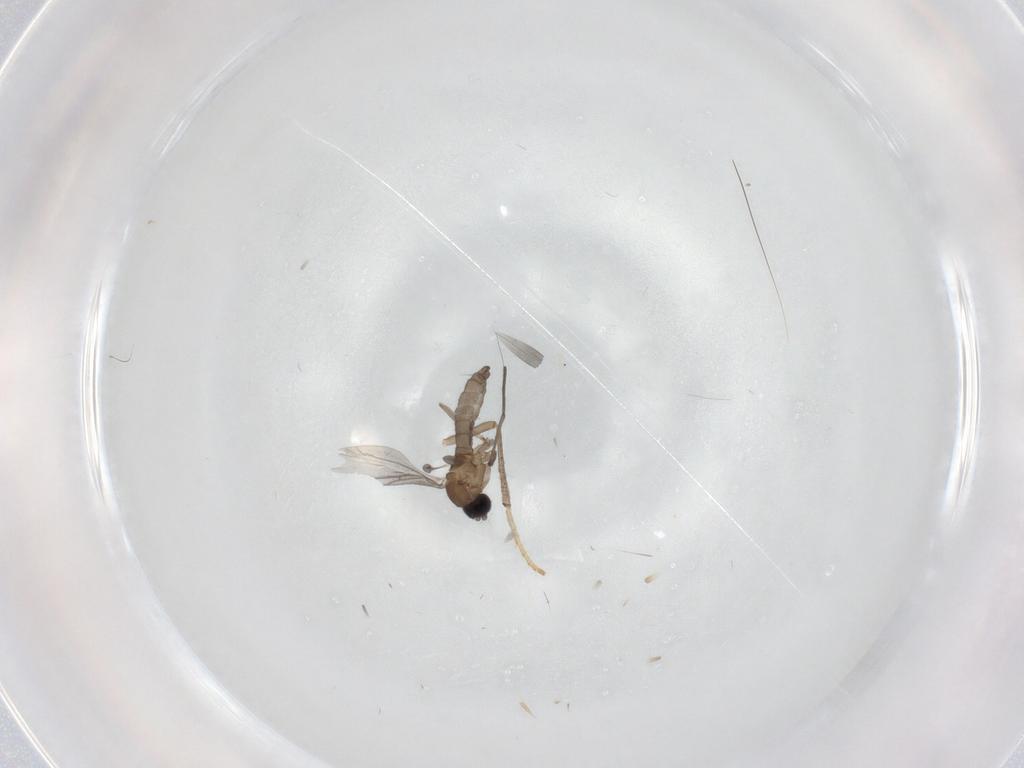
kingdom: Animalia
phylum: Arthropoda
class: Insecta
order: Diptera
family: Sciaridae
